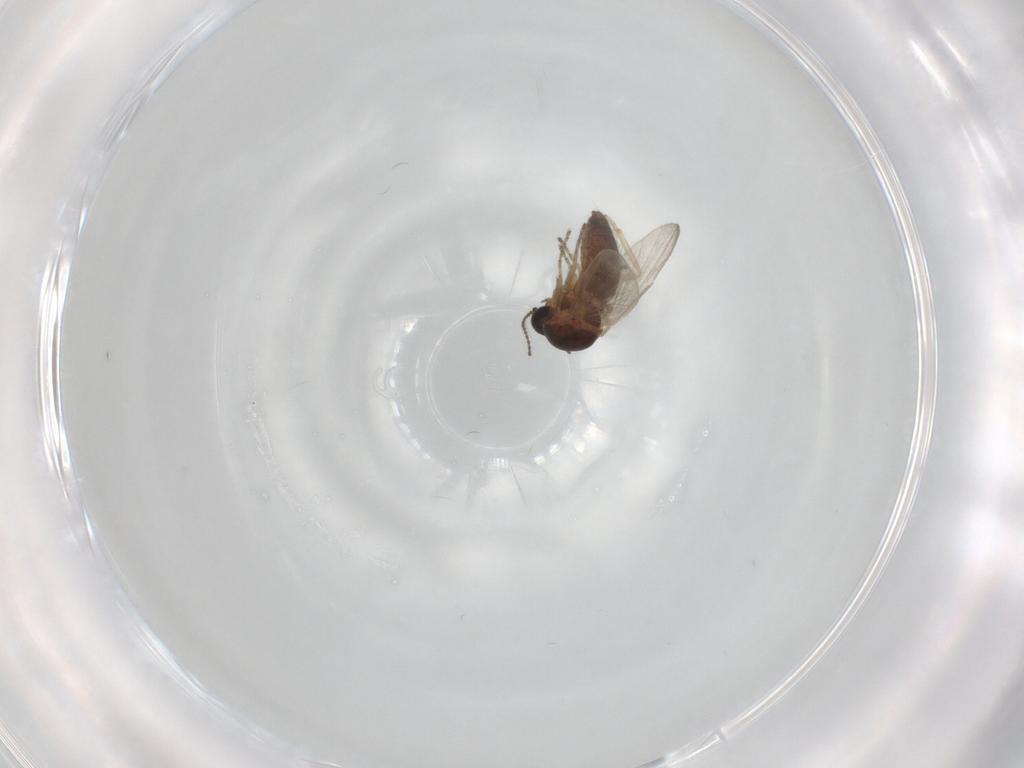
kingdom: Animalia
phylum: Arthropoda
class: Insecta
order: Diptera
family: Ceratopogonidae
